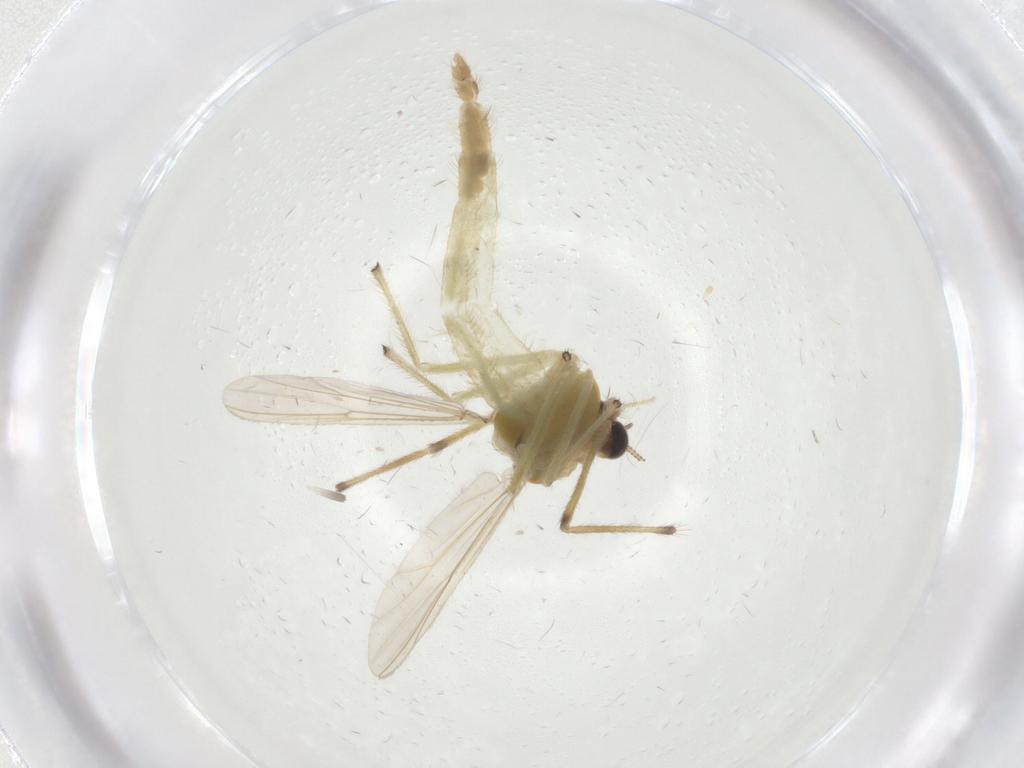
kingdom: Animalia
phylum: Arthropoda
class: Insecta
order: Diptera
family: Chironomidae
